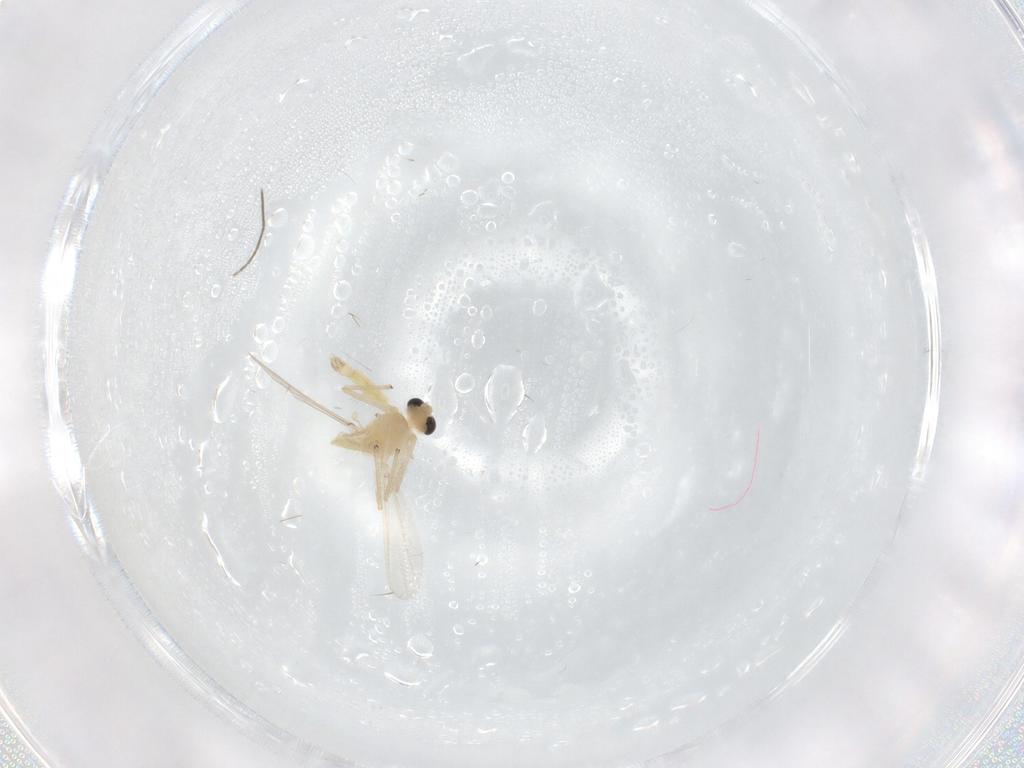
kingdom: Animalia
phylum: Arthropoda
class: Insecta
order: Diptera
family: Chironomidae
